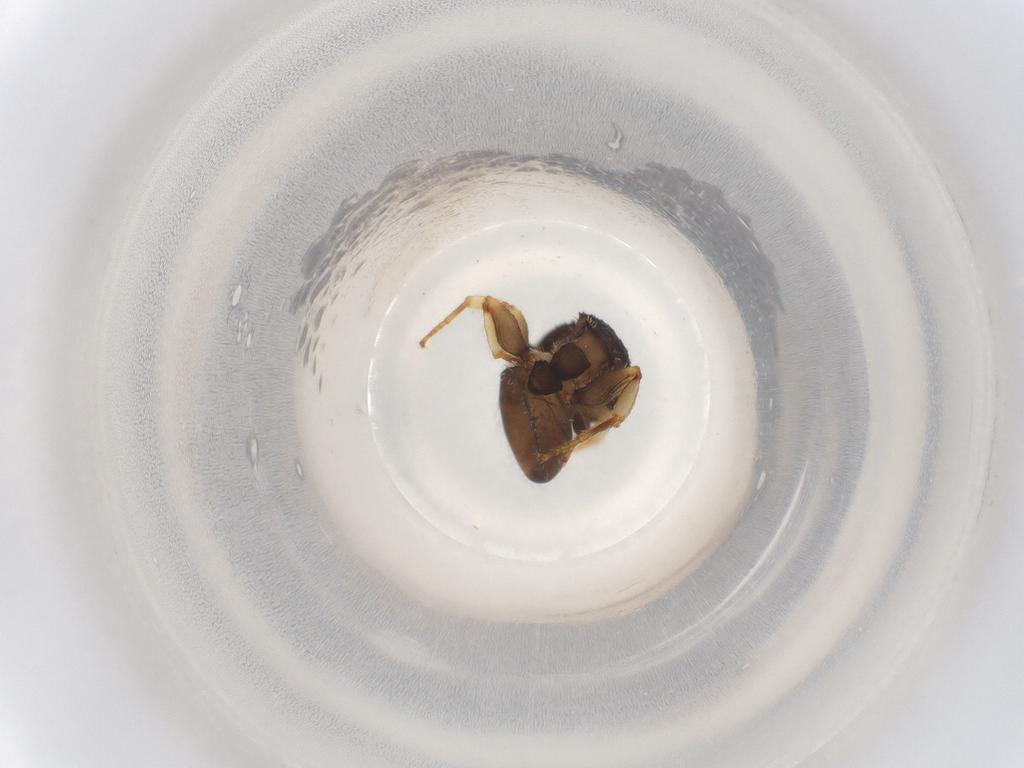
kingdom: Animalia
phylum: Arthropoda
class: Insecta
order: Hymenoptera
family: Formicidae
